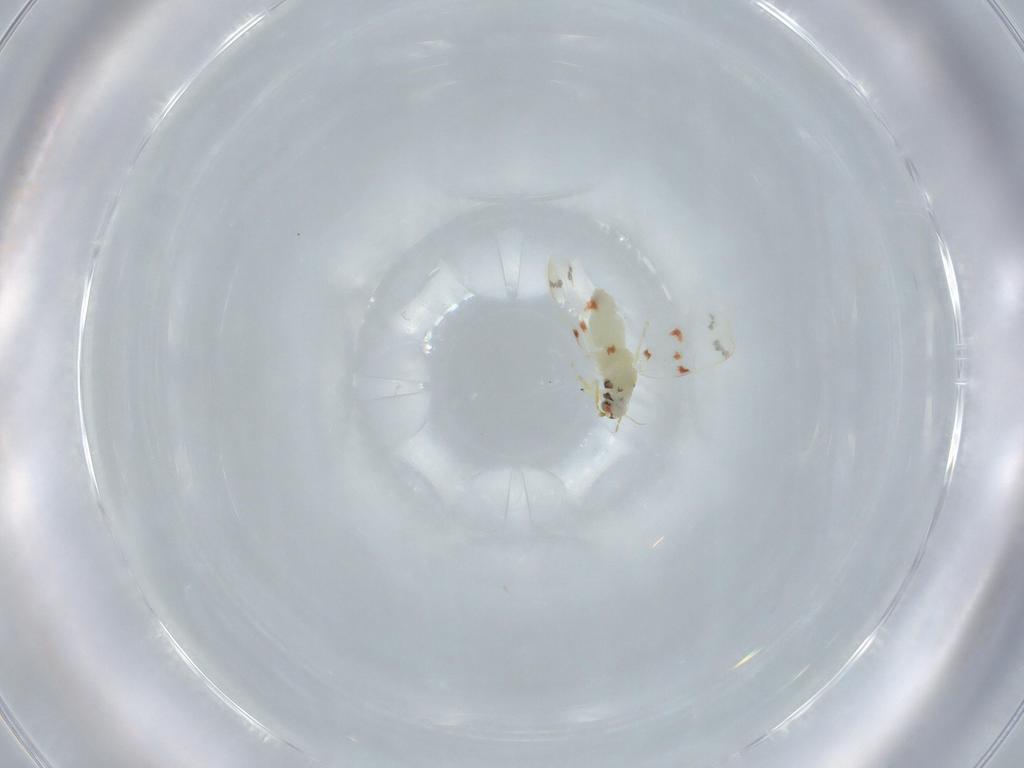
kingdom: Animalia
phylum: Arthropoda
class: Insecta
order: Hemiptera
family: Aleyrodidae
